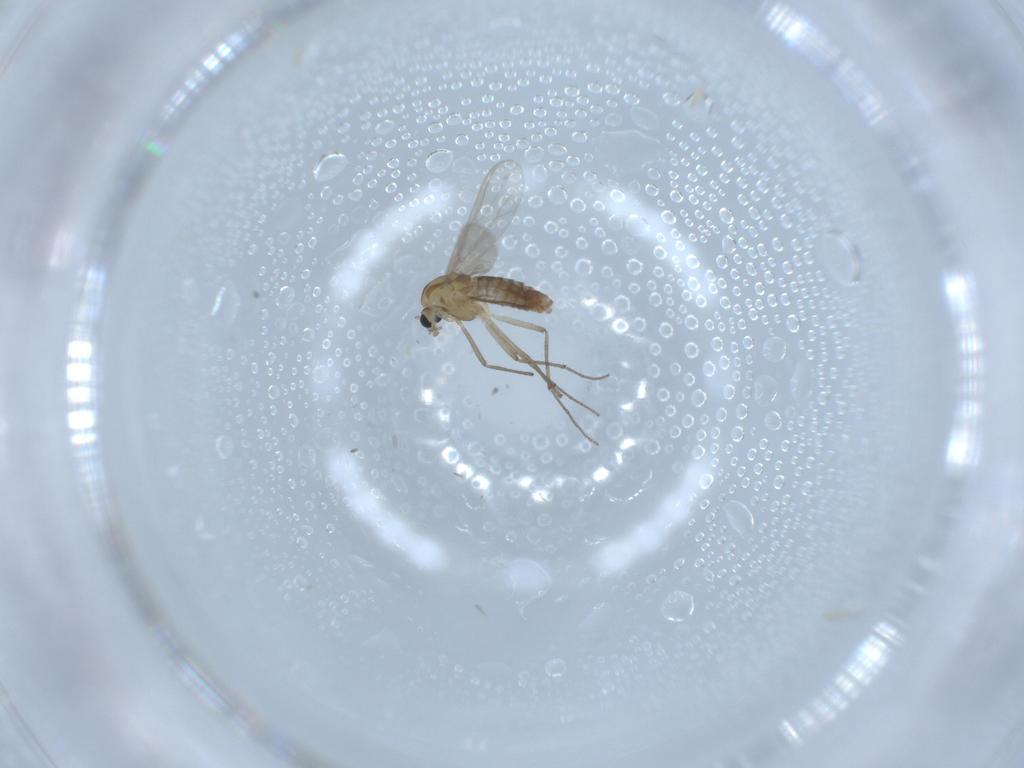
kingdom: Animalia
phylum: Arthropoda
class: Insecta
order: Diptera
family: Chironomidae
